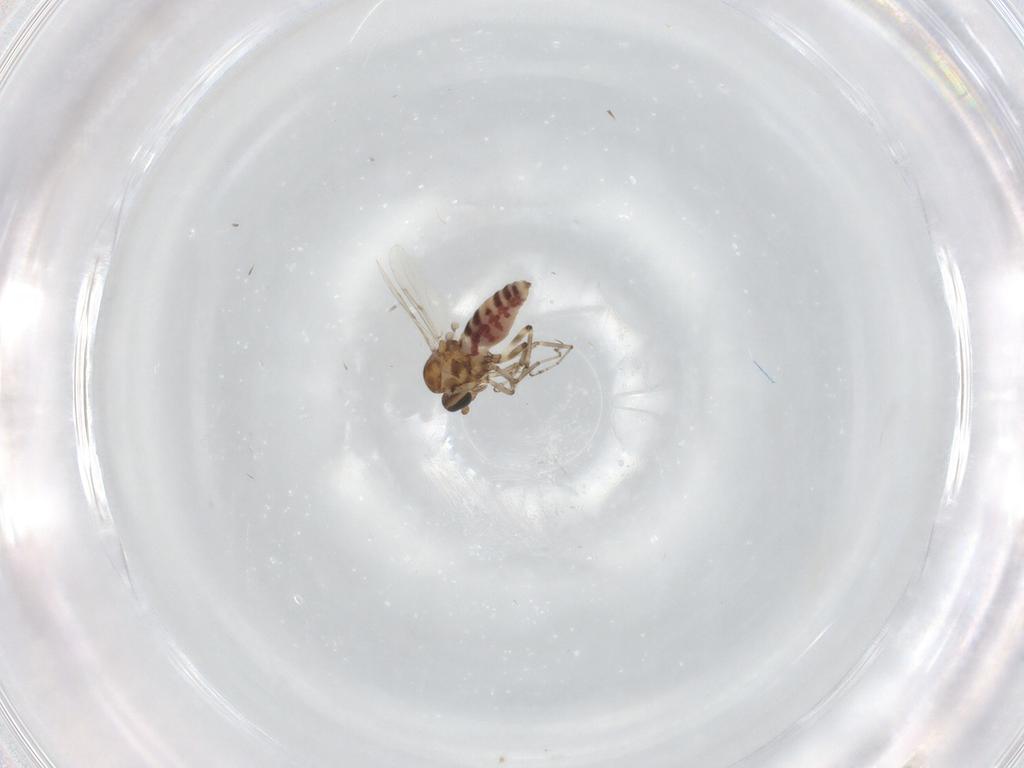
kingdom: Animalia
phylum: Arthropoda
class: Insecta
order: Diptera
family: Ceratopogonidae
